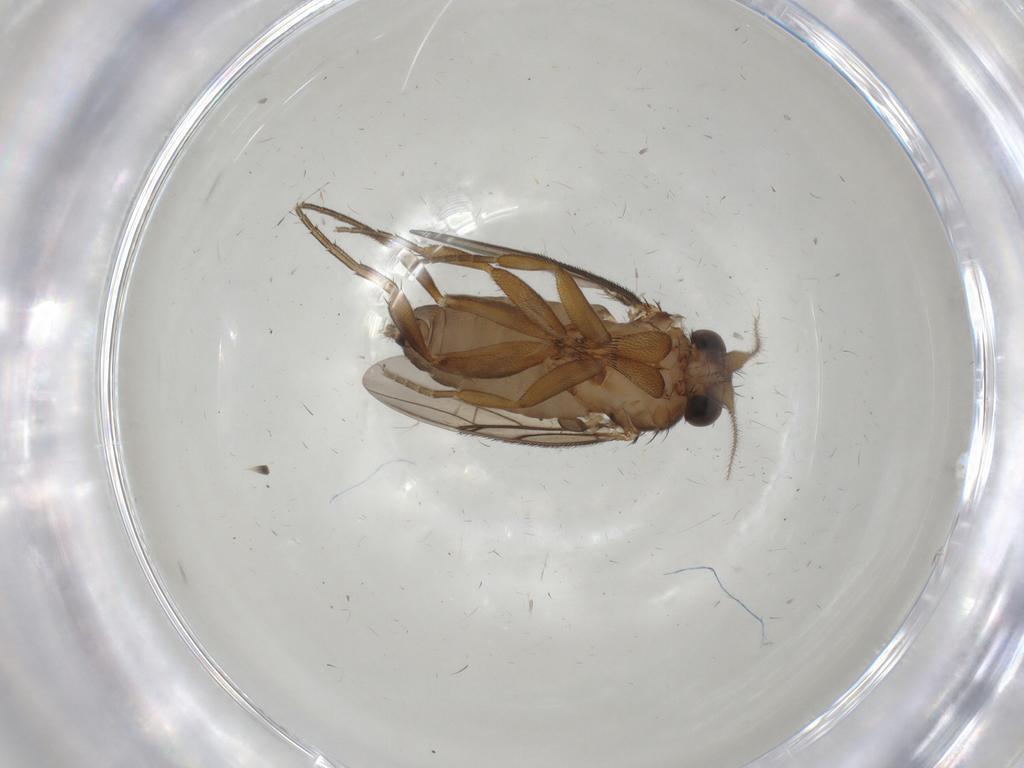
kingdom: Animalia
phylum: Arthropoda
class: Insecta
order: Diptera
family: Phoridae
